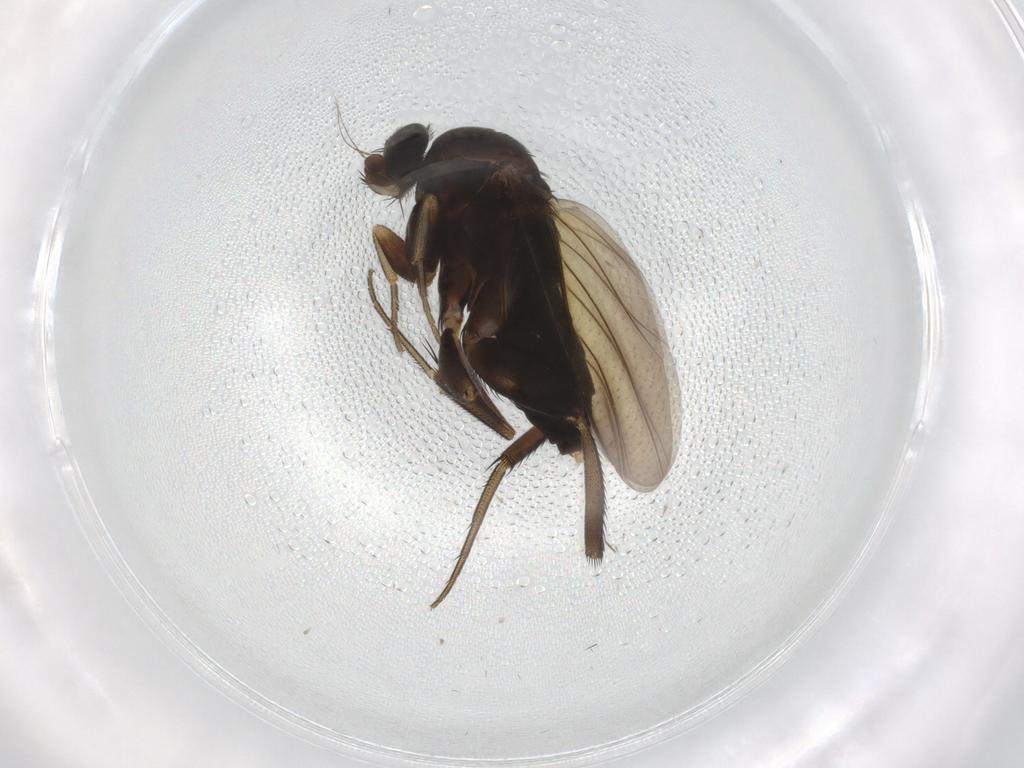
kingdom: Animalia
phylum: Arthropoda
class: Insecta
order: Diptera
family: Phoridae
